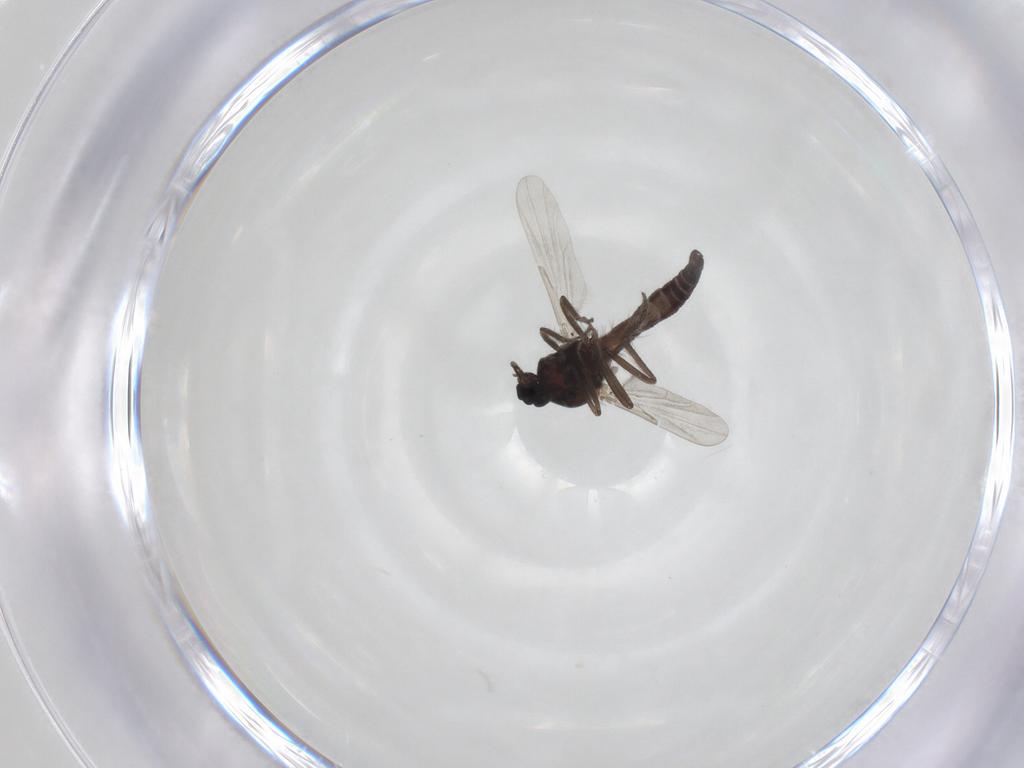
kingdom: Animalia
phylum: Arthropoda
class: Insecta
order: Diptera
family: Ceratopogonidae
